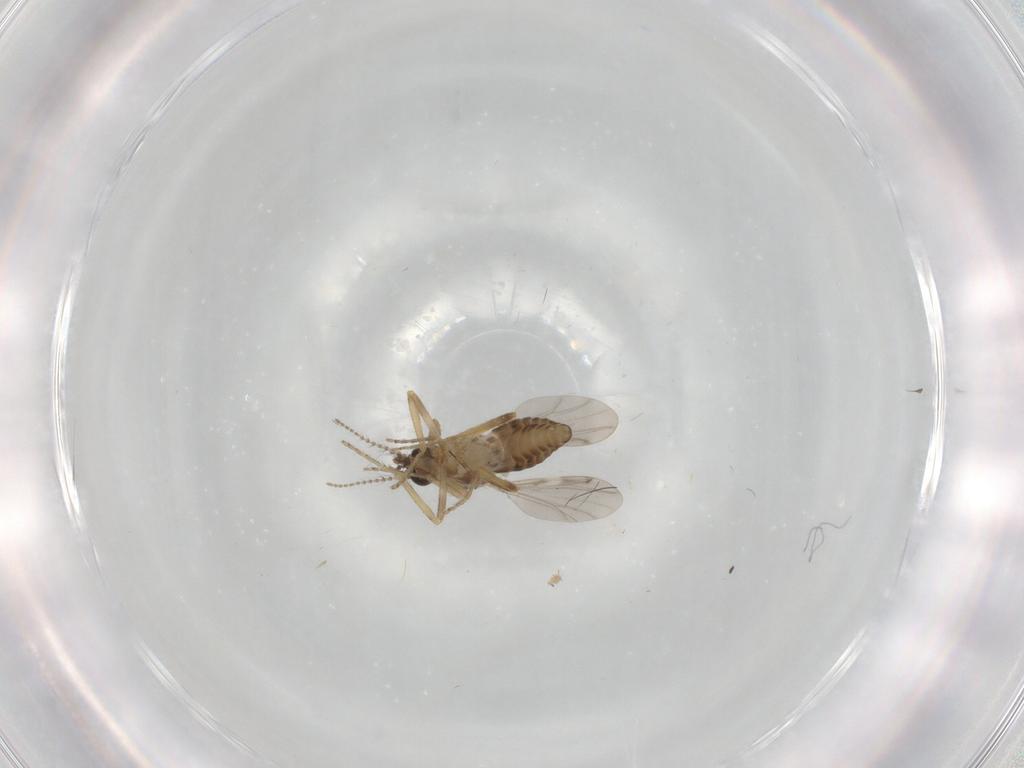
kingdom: Animalia
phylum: Arthropoda
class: Insecta
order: Diptera
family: Ceratopogonidae
